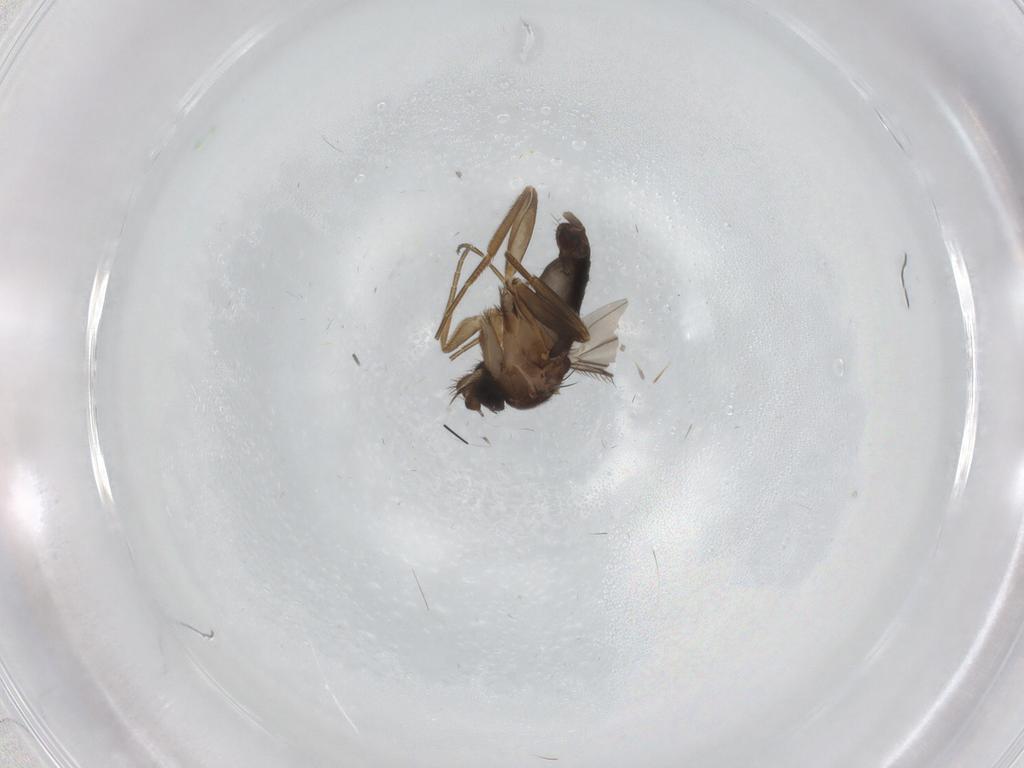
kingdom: Animalia
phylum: Arthropoda
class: Insecta
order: Diptera
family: Phoridae
